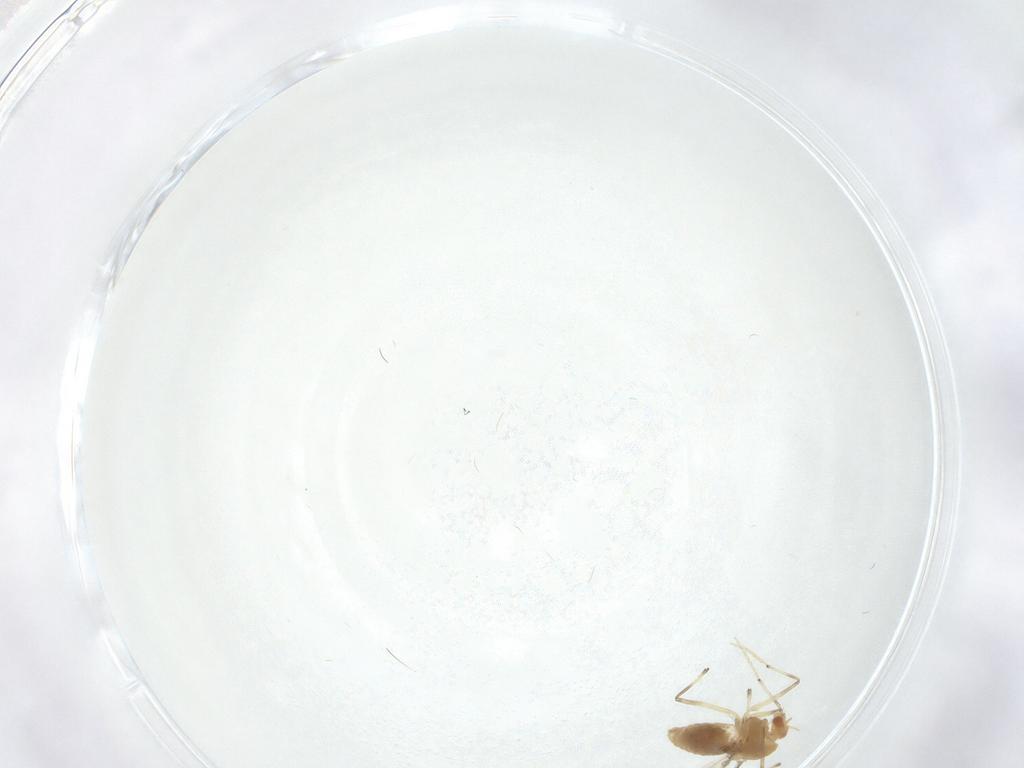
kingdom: Animalia
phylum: Arthropoda
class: Insecta
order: Diptera
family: Chironomidae
